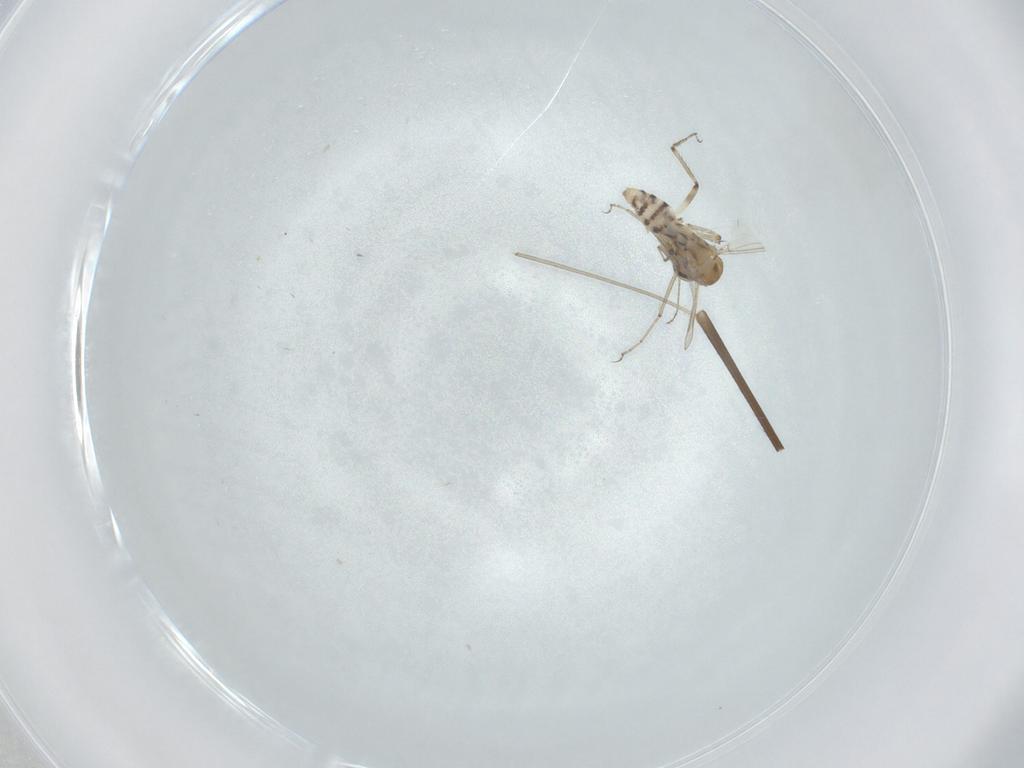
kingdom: Animalia
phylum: Arthropoda
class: Insecta
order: Diptera
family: Ceratopogonidae
